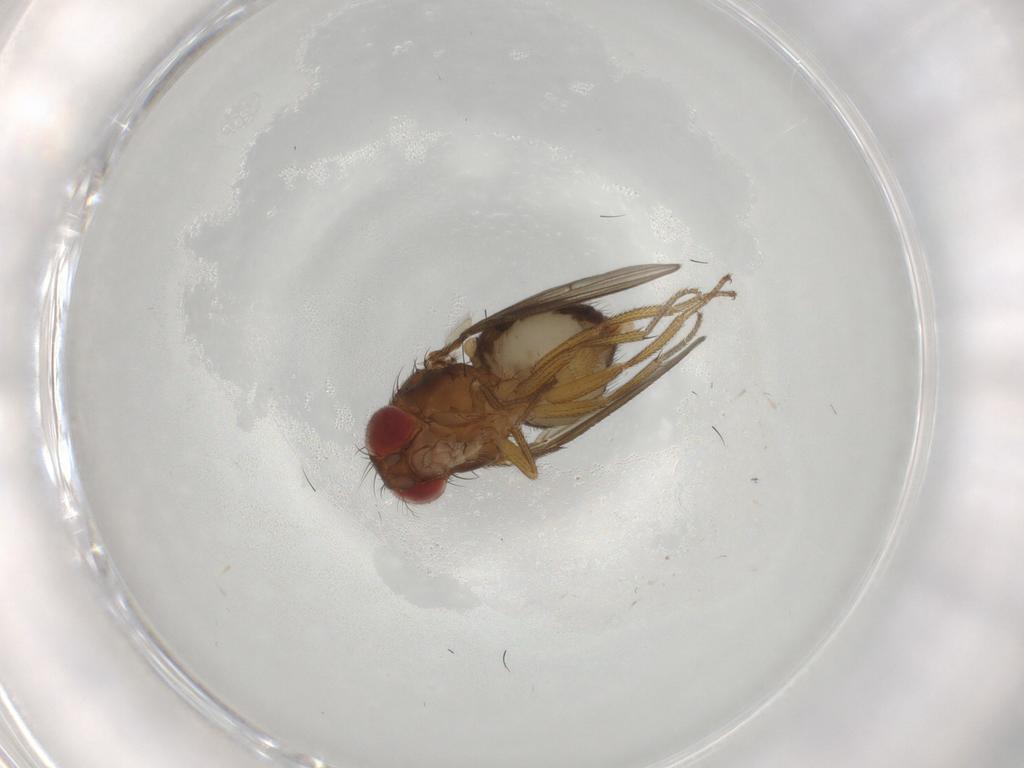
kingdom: Animalia
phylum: Arthropoda
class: Insecta
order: Diptera
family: Drosophilidae
